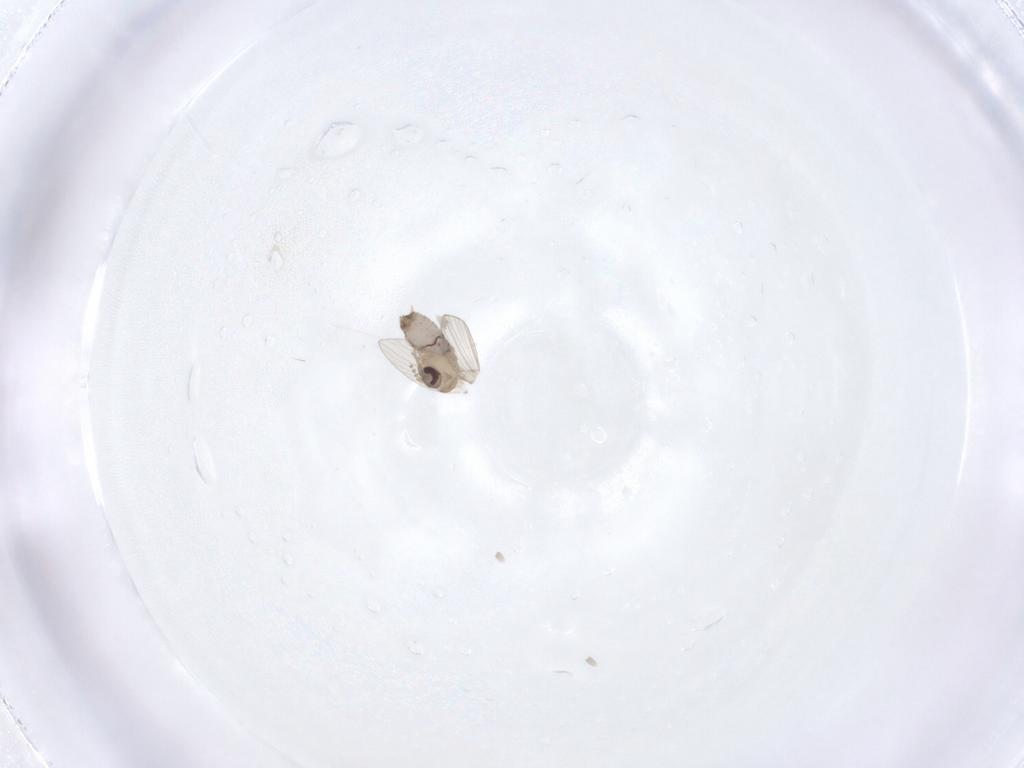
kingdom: Animalia
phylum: Arthropoda
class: Insecta
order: Diptera
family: Psychodidae
